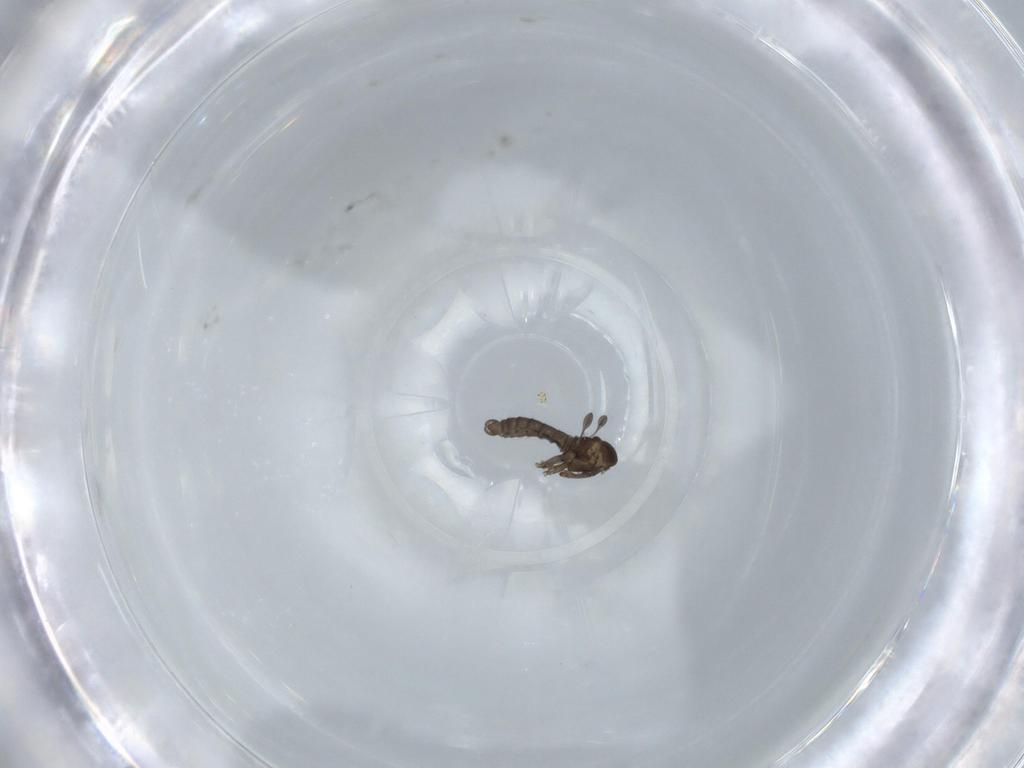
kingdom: Animalia
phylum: Arthropoda
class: Insecta
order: Diptera
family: Sciaridae
